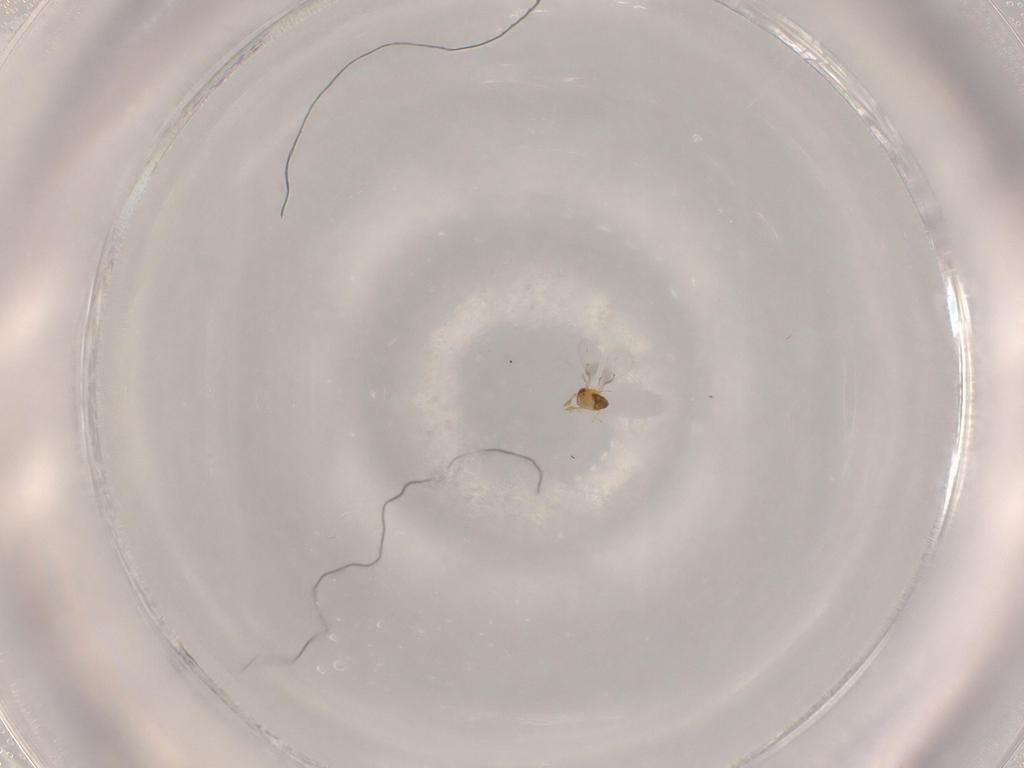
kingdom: Animalia
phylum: Arthropoda
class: Insecta
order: Hymenoptera
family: Trichogrammatidae
